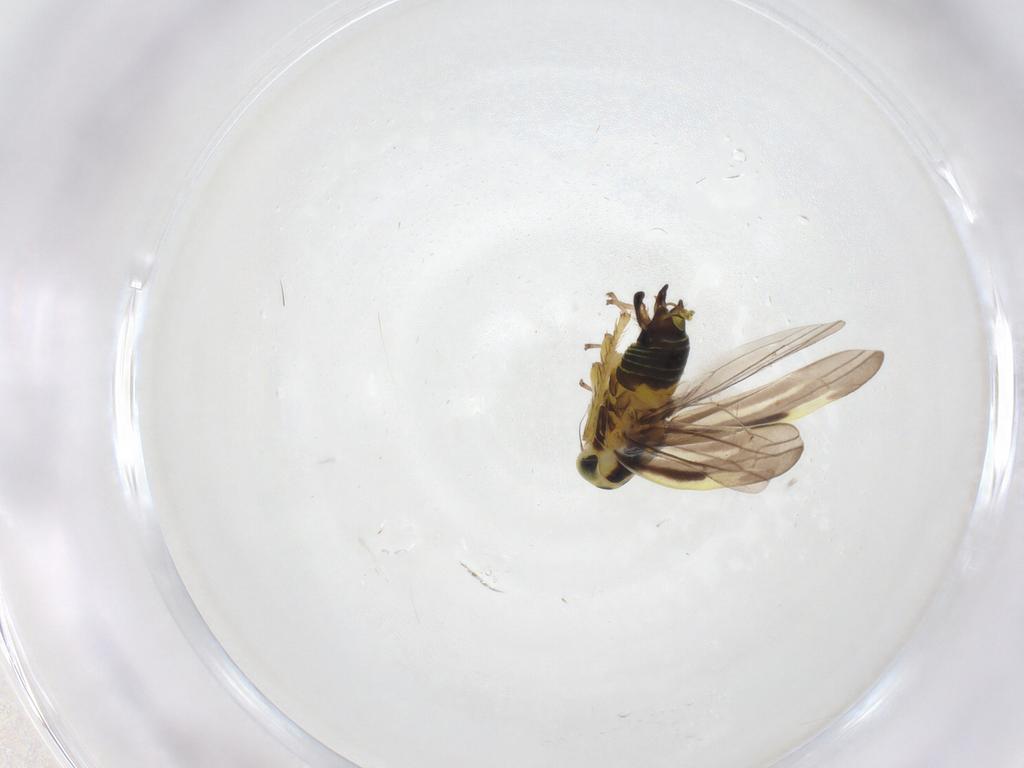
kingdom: Animalia
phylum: Arthropoda
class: Insecta
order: Hemiptera
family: Cicadellidae
